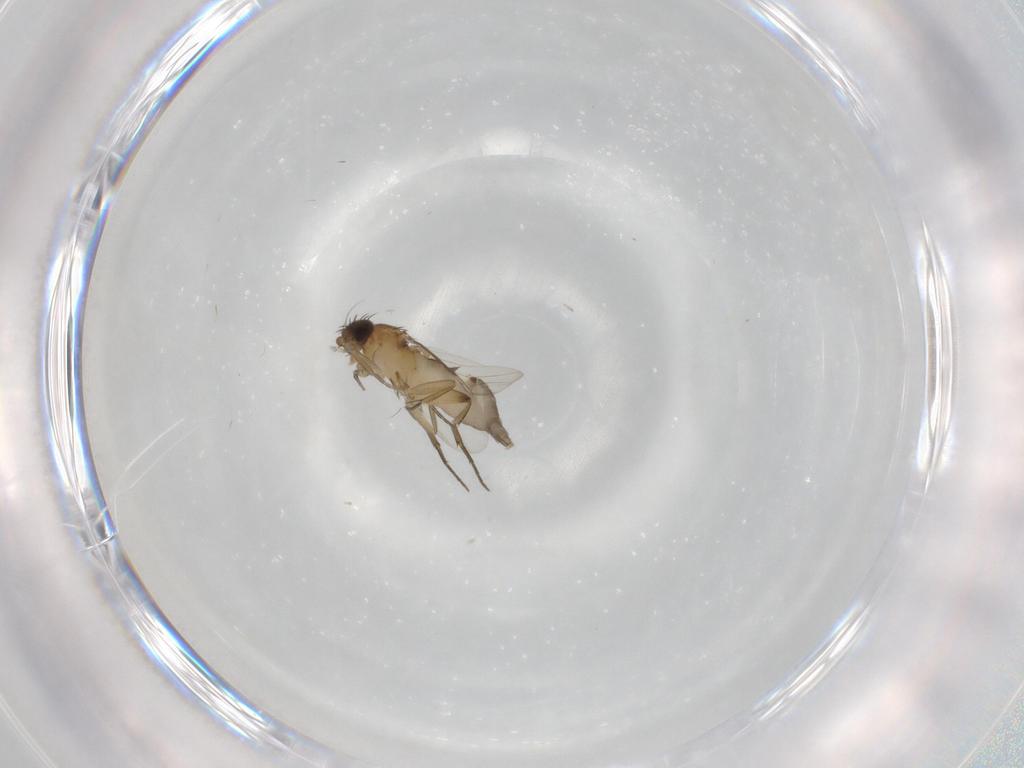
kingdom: Animalia
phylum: Arthropoda
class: Insecta
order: Diptera
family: Phoridae
